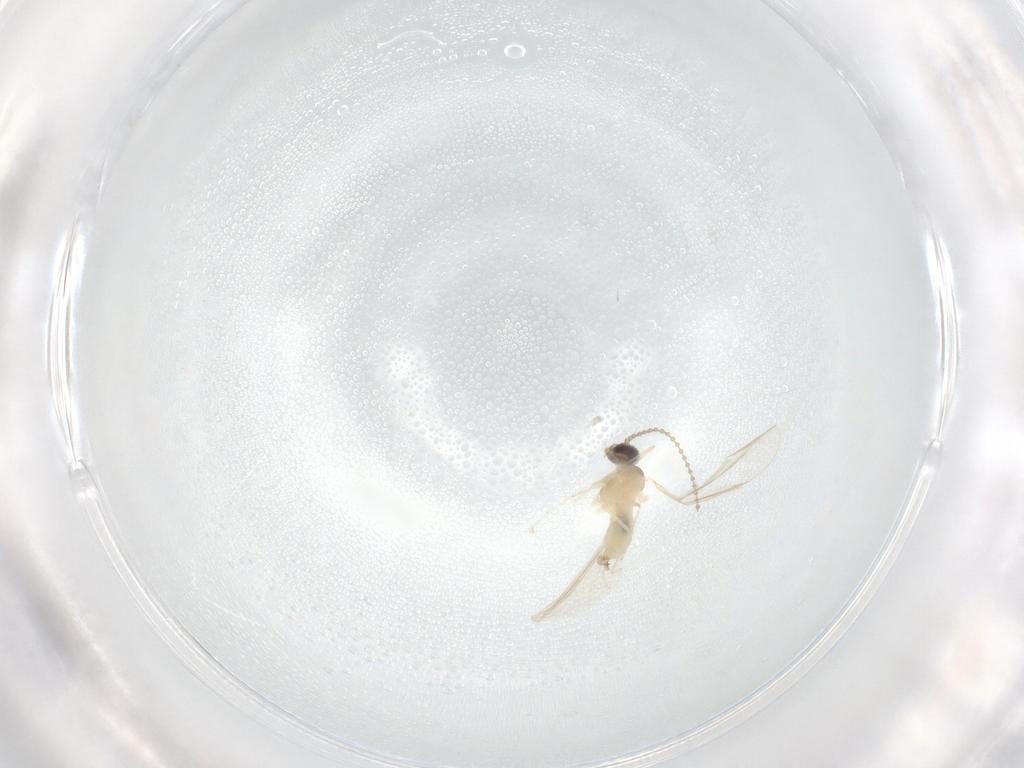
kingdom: Animalia
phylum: Arthropoda
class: Insecta
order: Diptera
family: Cecidomyiidae
